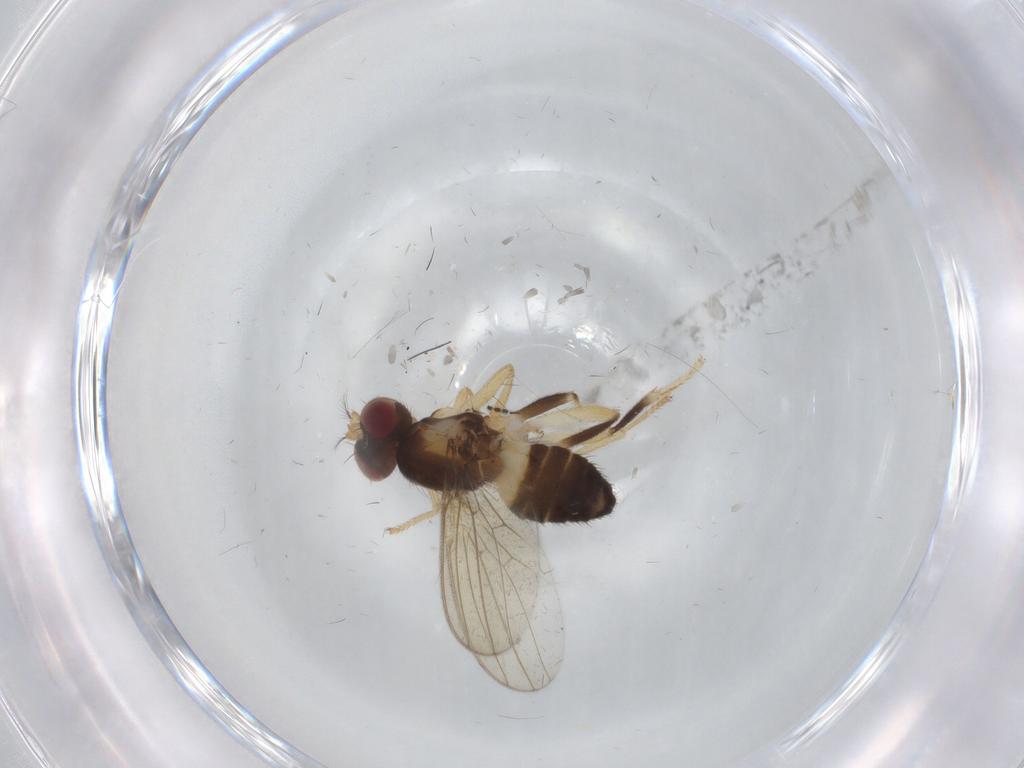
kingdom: Animalia
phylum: Arthropoda
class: Insecta
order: Diptera
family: Periscelididae
